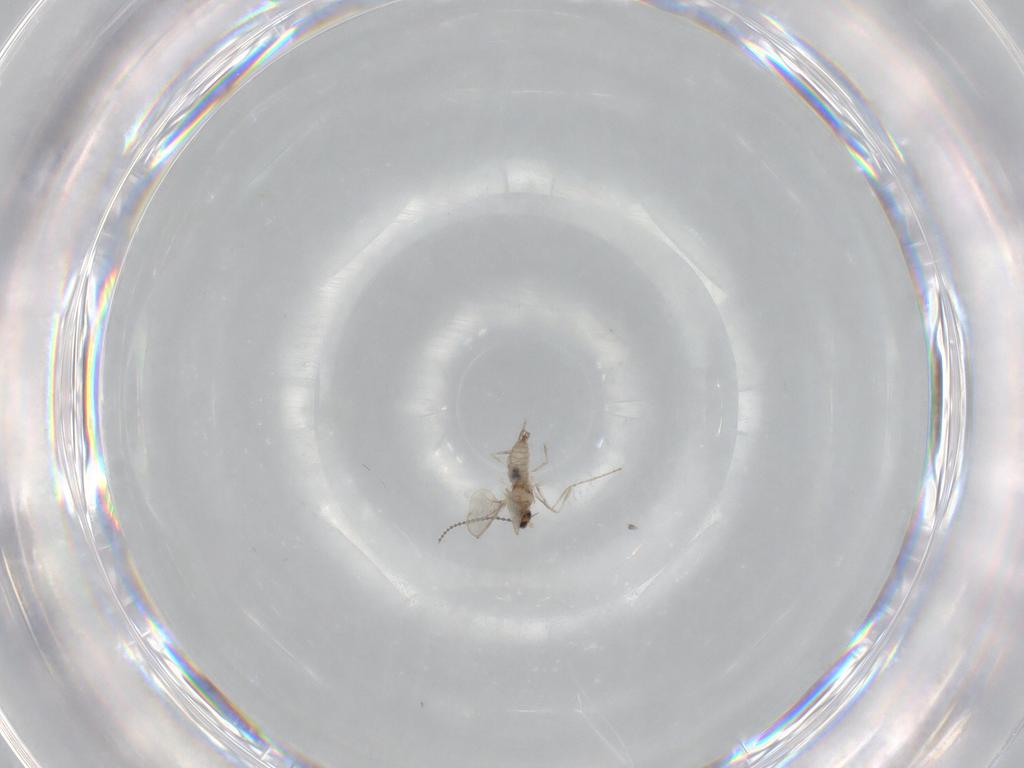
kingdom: Animalia
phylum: Arthropoda
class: Insecta
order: Diptera
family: Cecidomyiidae
